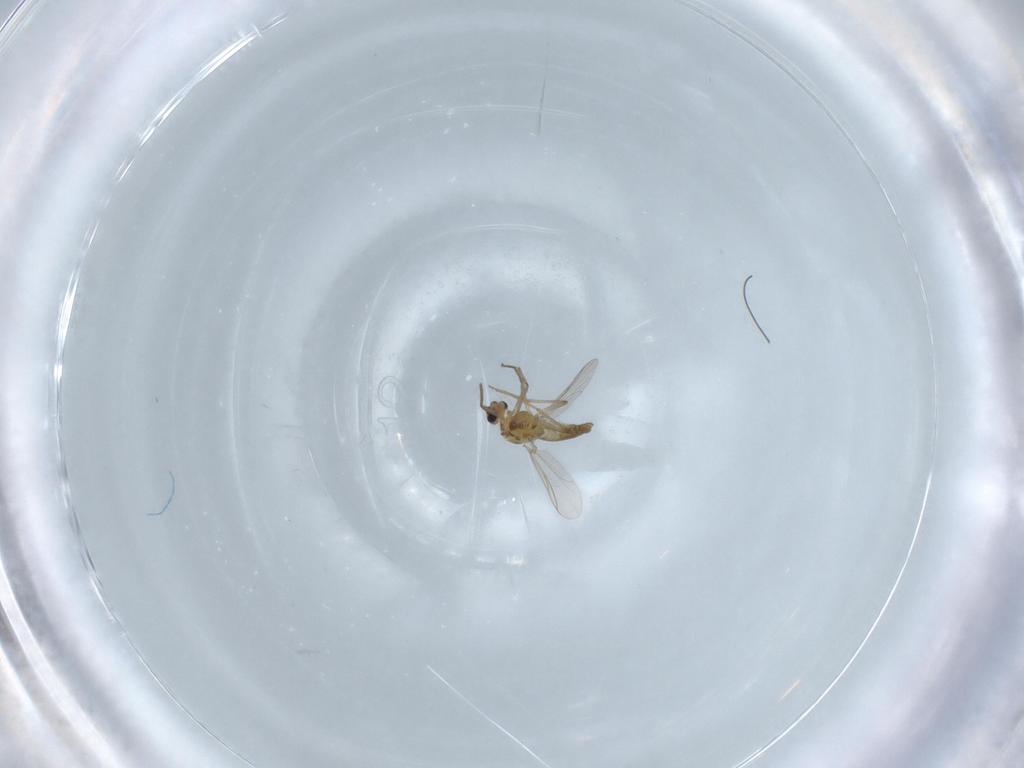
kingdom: Animalia
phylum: Arthropoda
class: Insecta
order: Diptera
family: Chironomidae
